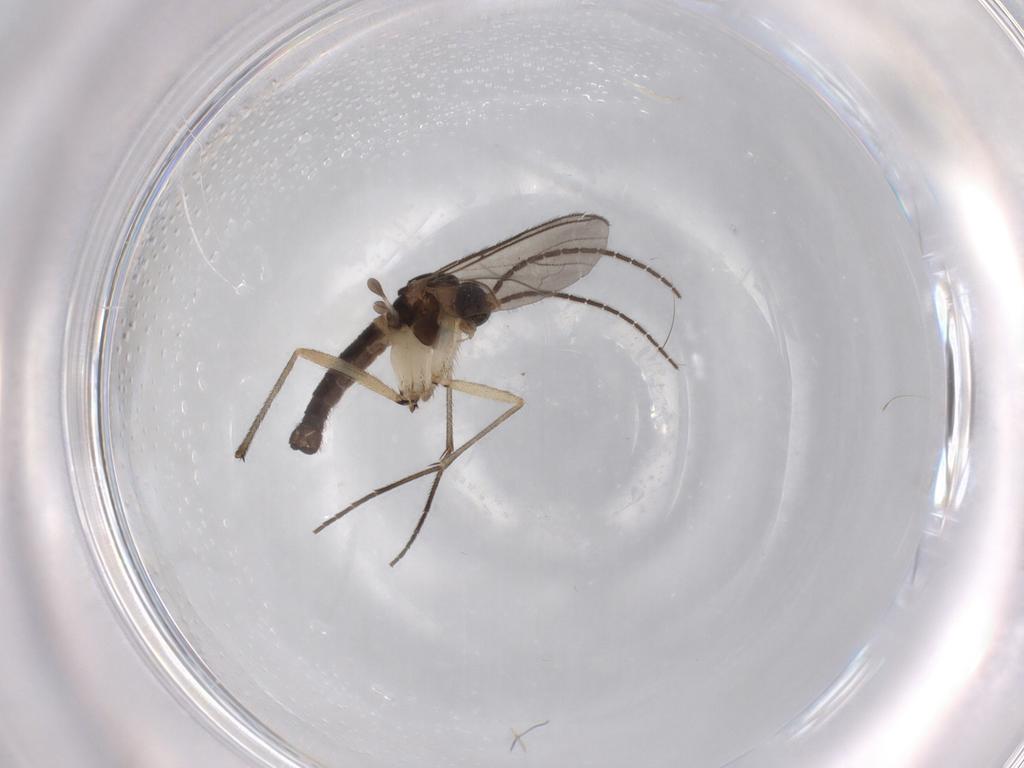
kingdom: Animalia
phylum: Arthropoda
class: Insecta
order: Diptera
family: Sciaridae
